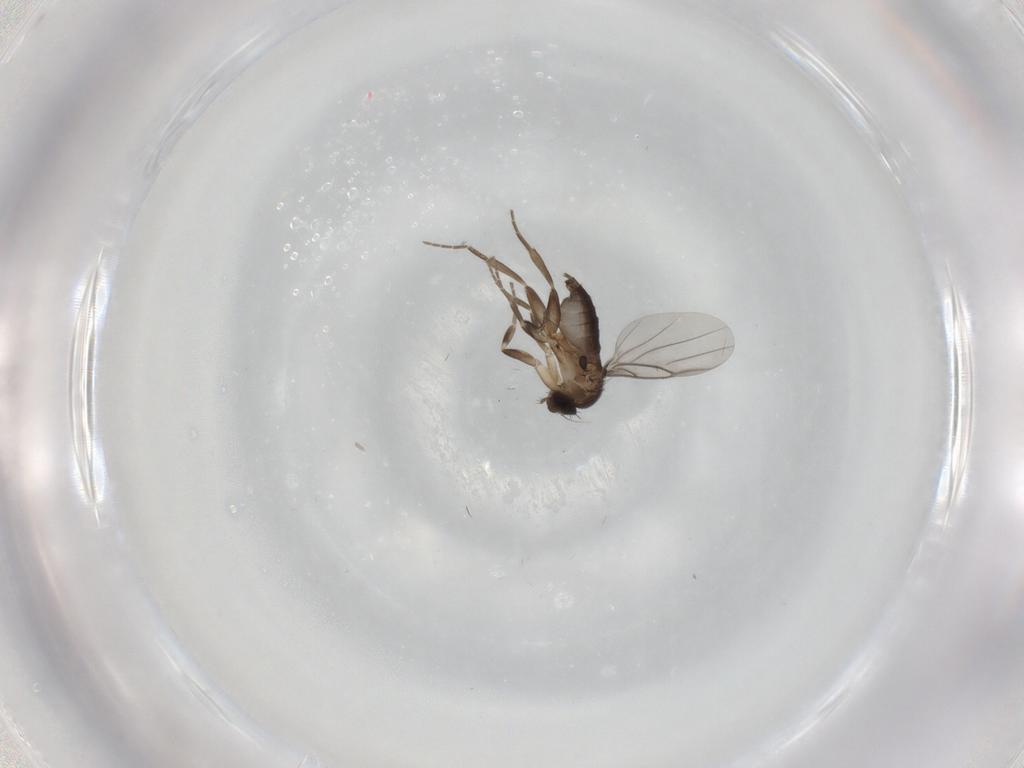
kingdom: Animalia
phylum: Arthropoda
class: Insecta
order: Diptera
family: Phoridae
